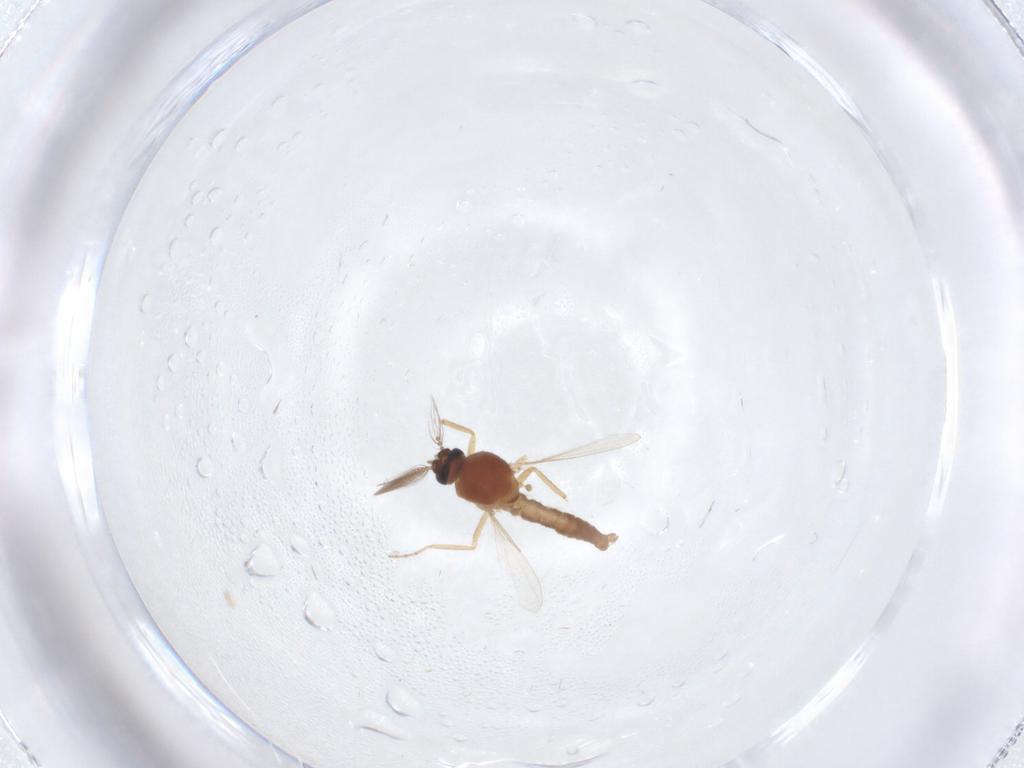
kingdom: Animalia
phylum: Arthropoda
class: Insecta
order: Diptera
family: Ceratopogonidae
